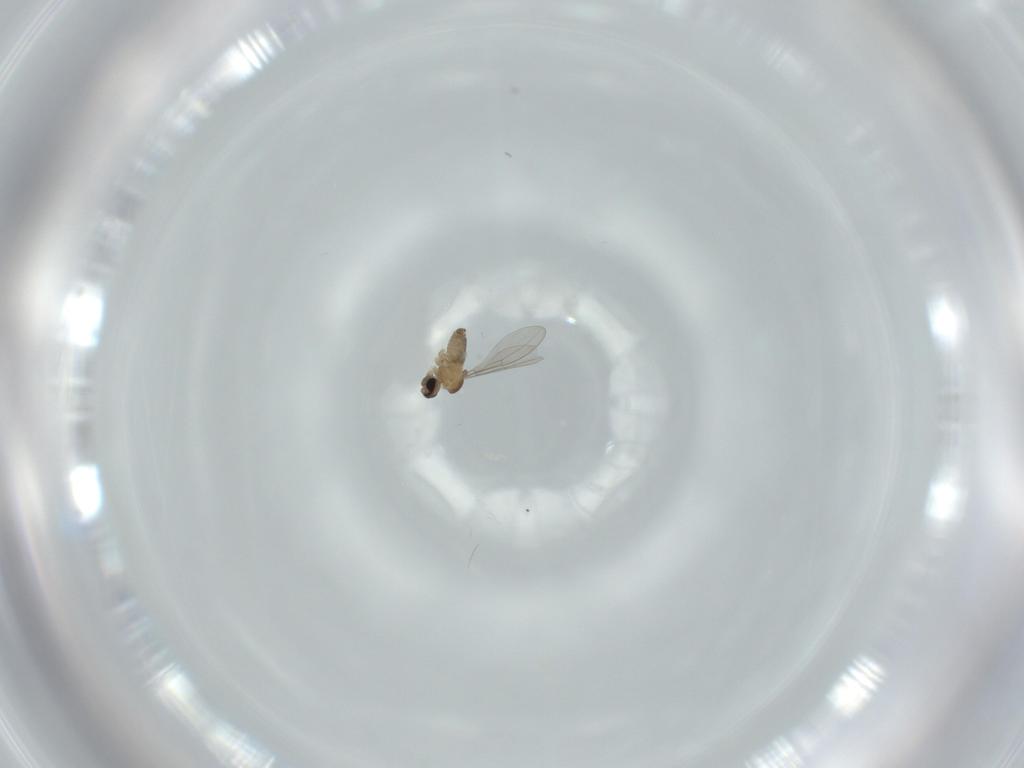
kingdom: Animalia
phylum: Arthropoda
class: Insecta
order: Diptera
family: Cecidomyiidae
